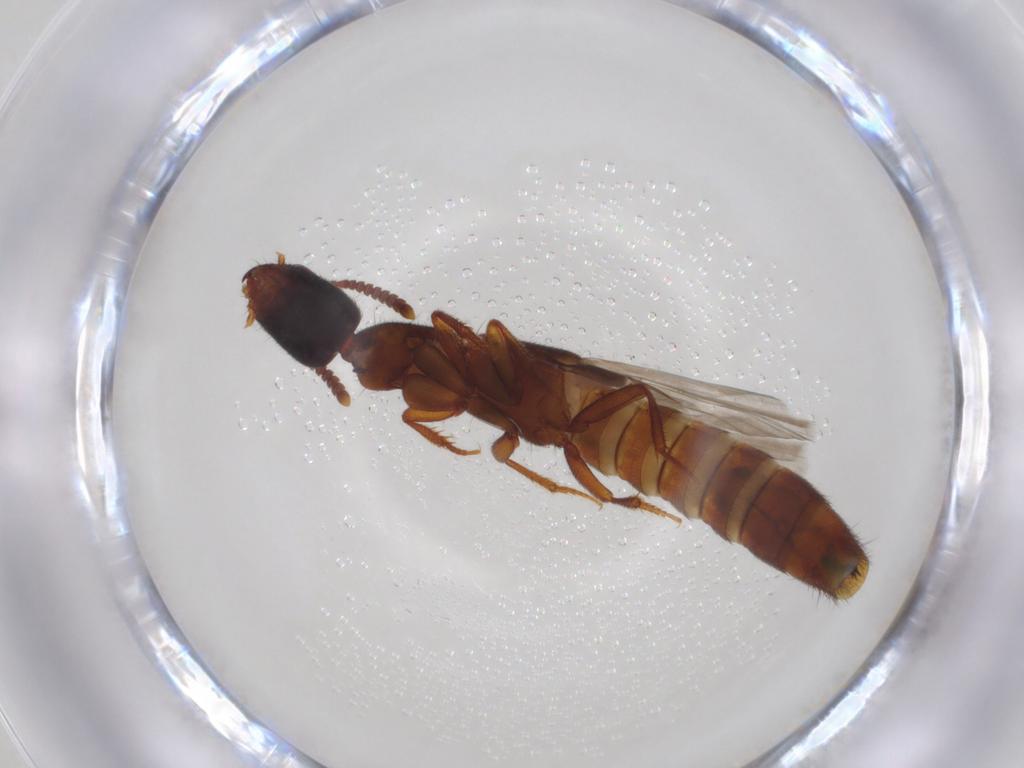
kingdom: Animalia
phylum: Arthropoda
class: Insecta
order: Coleoptera
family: Staphylinidae
